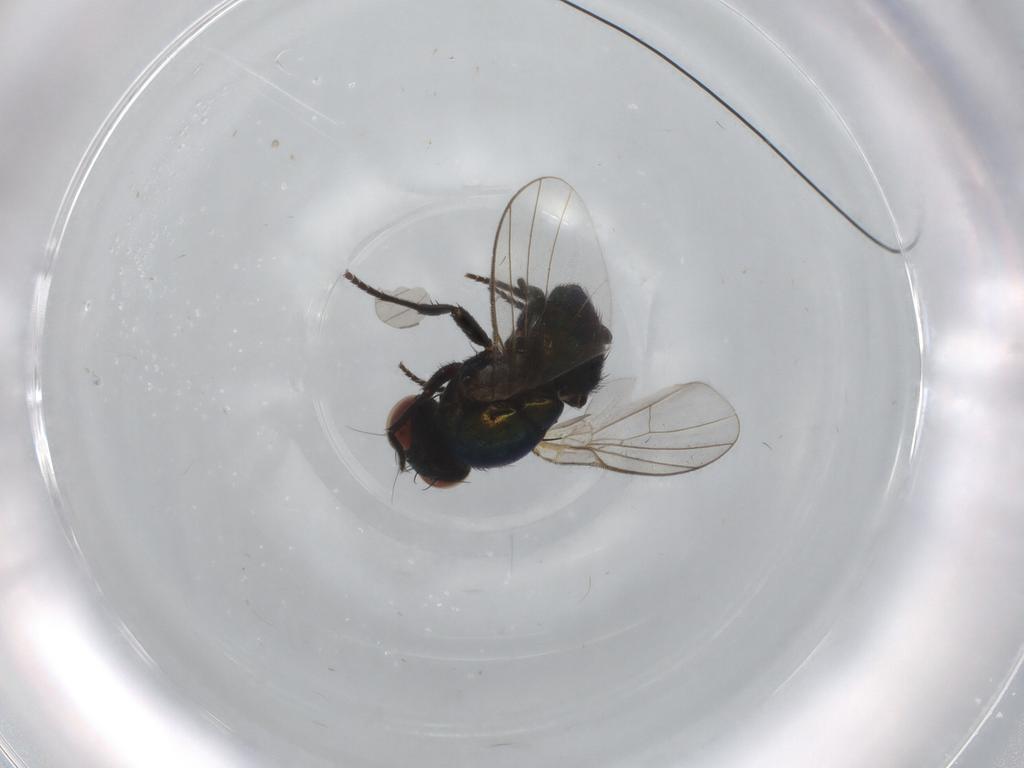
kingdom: Animalia
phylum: Arthropoda
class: Insecta
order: Diptera
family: Agromyzidae
